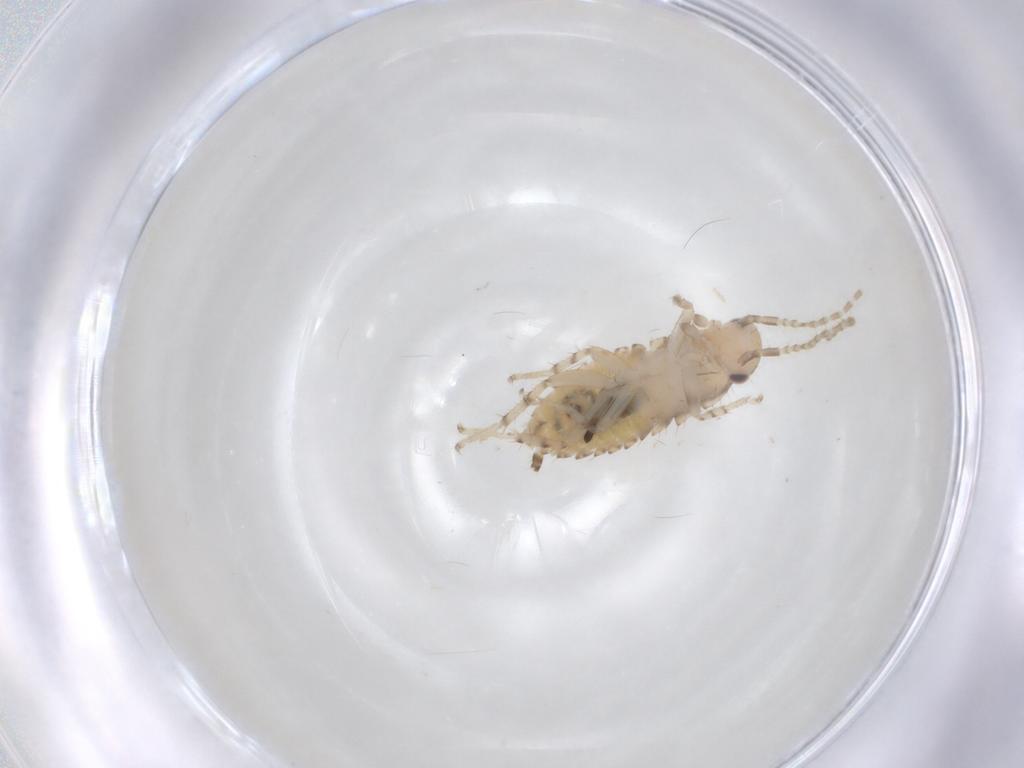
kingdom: Animalia
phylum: Arthropoda
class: Insecta
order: Blattodea
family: Ectobiidae
